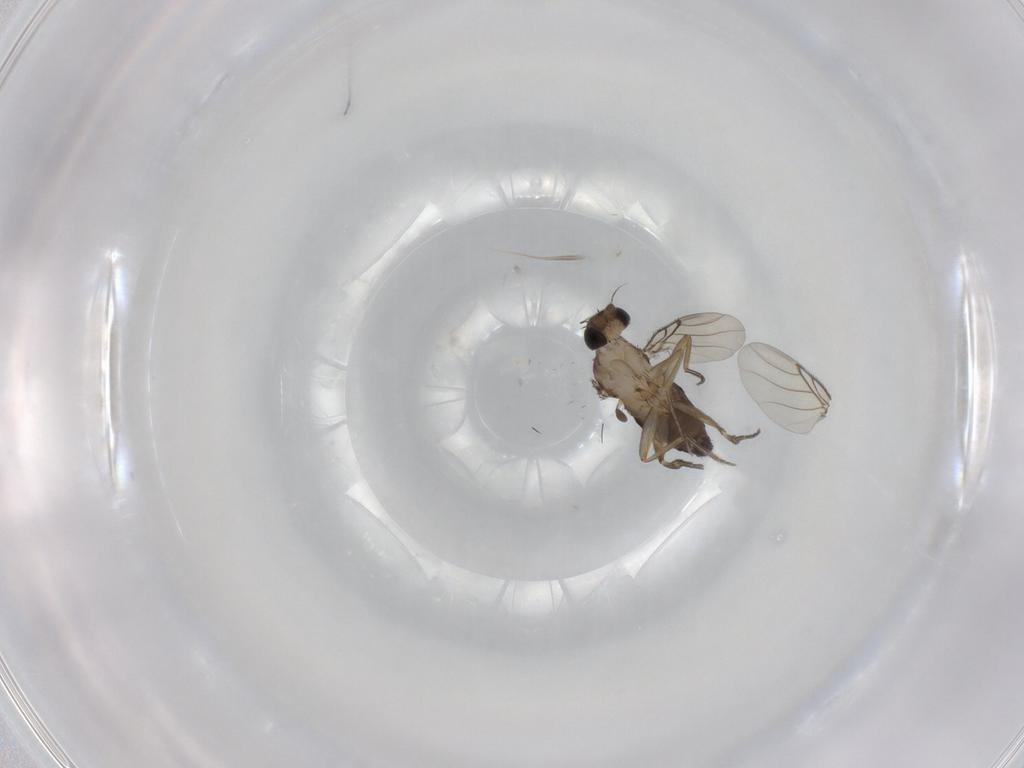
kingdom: Animalia
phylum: Arthropoda
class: Insecta
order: Diptera
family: Phoridae
